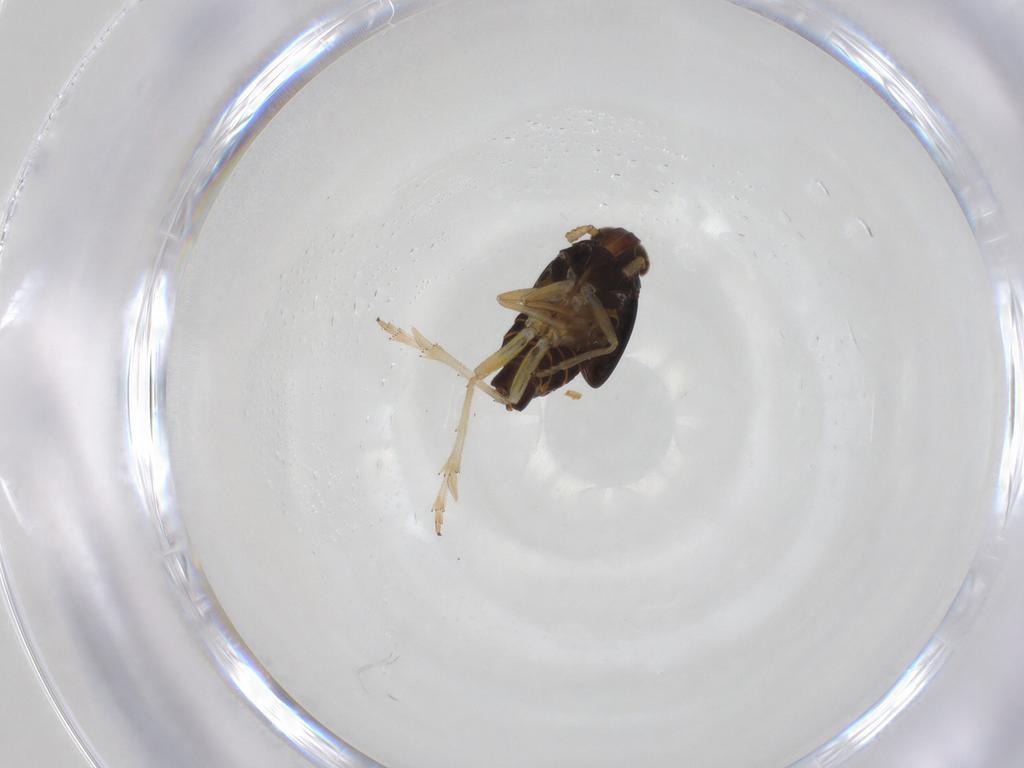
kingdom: Animalia
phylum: Arthropoda
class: Insecta
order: Hemiptera
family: Delphacidae
